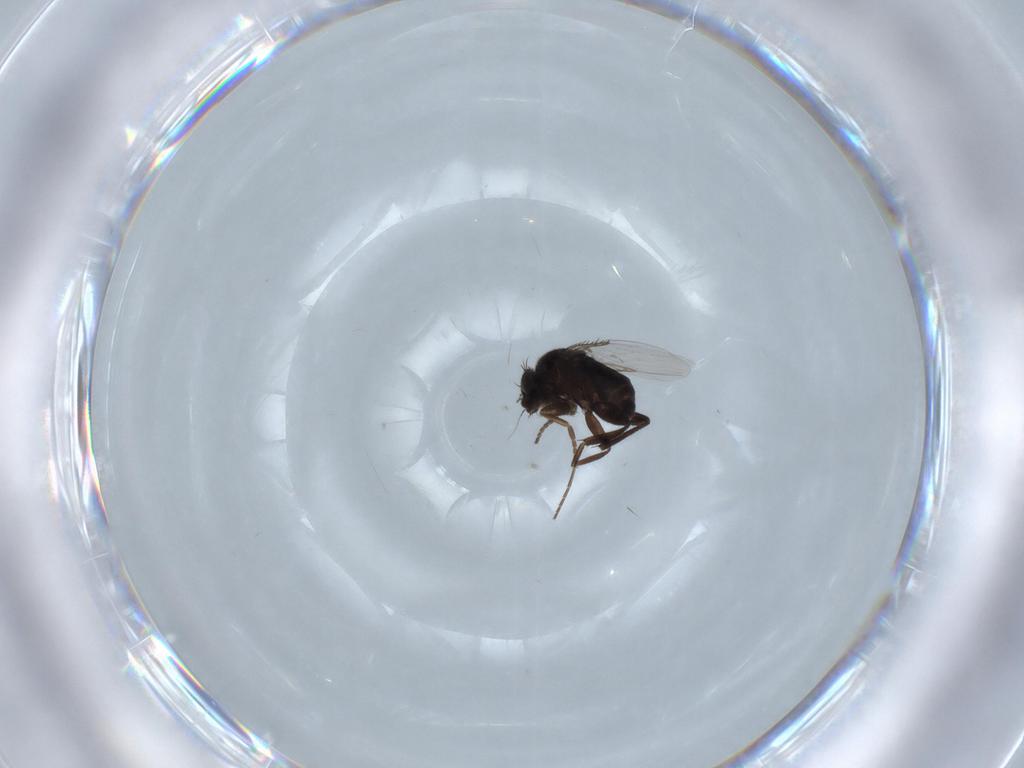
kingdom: Animalia
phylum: Arthropoda
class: Insecta
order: Diptera
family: Phoridae
